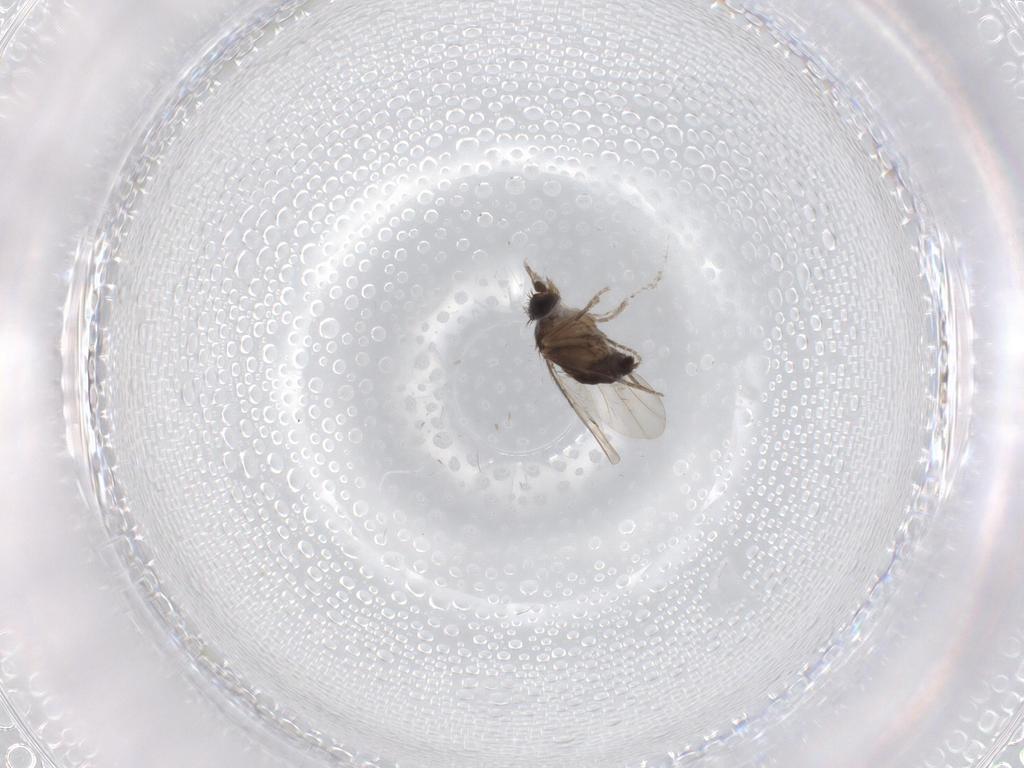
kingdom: Animalia
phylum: Arthropoda
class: Insecta
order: Diptera
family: Phoridae
